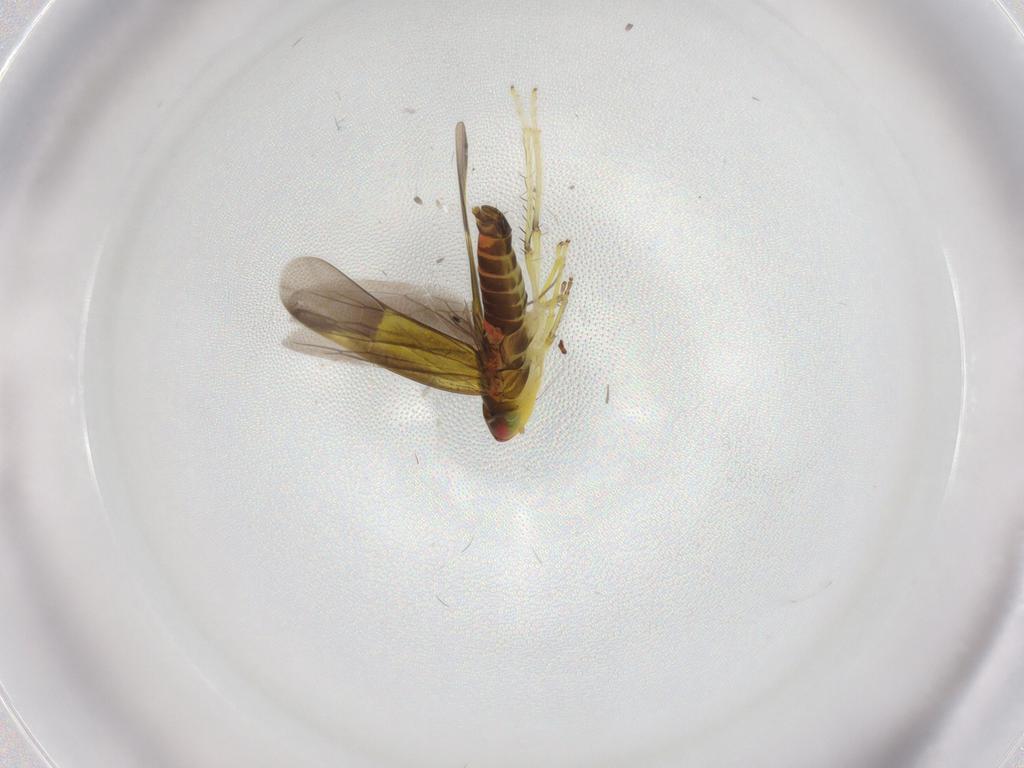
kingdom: Animalia
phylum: Arthropoda
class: Insecta
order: Hemiptera
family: Cicadellidae
